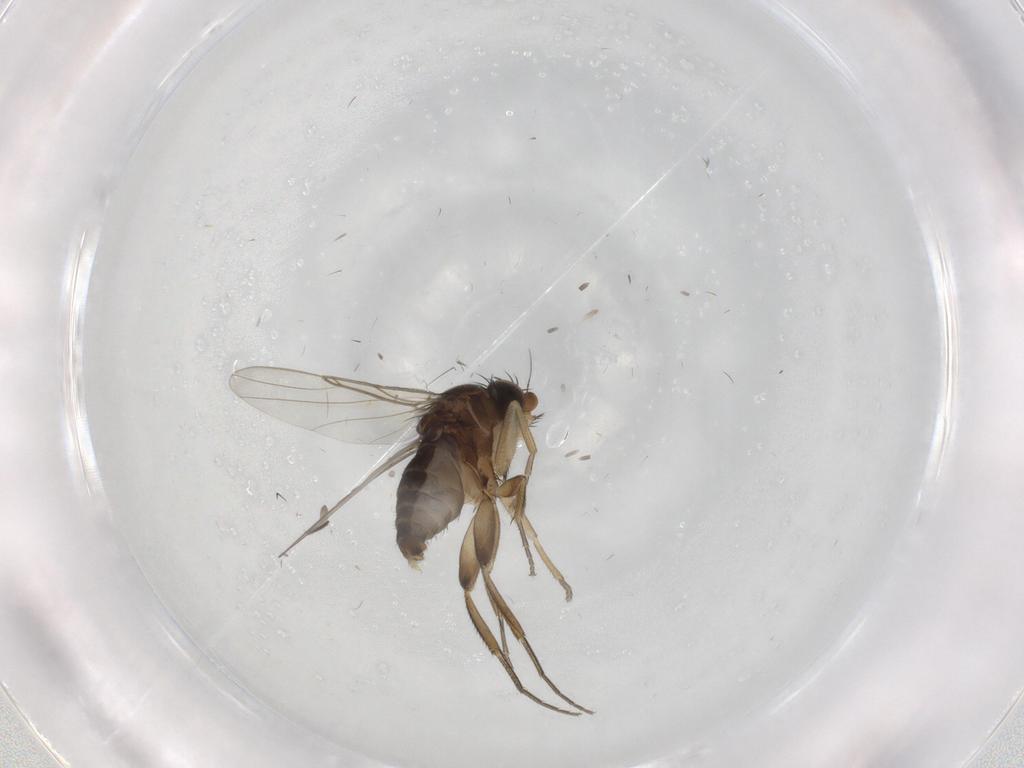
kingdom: Animalia
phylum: Arthropoda
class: Insecta
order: Diptera
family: Phoridae
